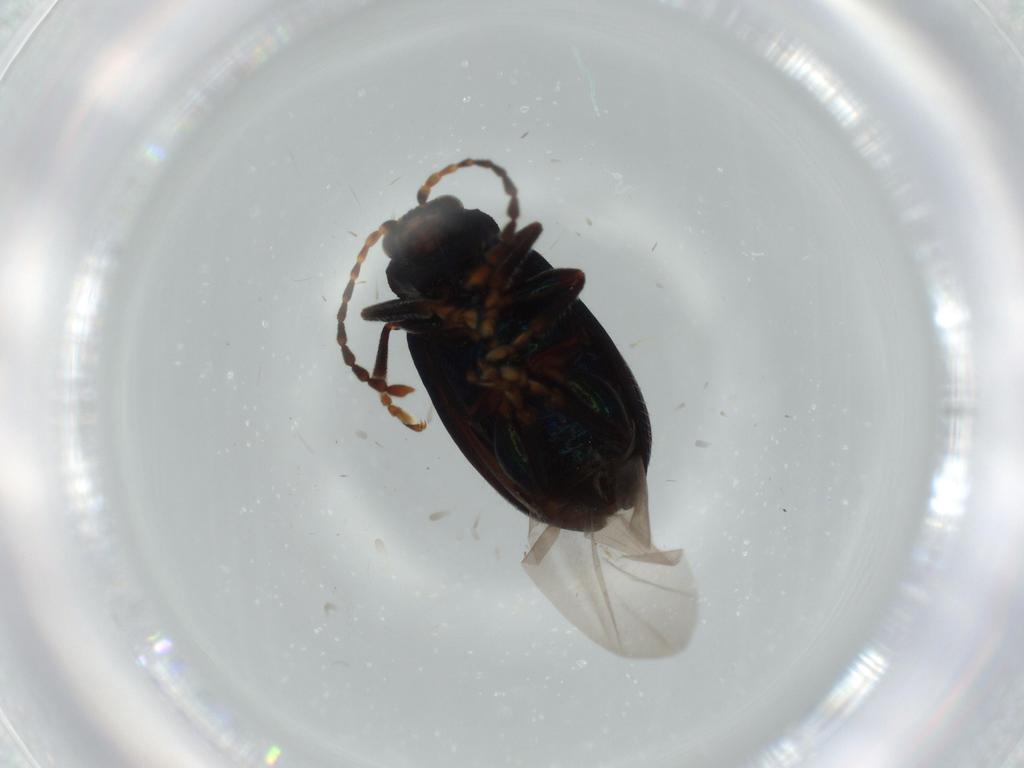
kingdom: Animalia
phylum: Arthropoda
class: Insecta
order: Coleoptera
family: Chrysomelidae
